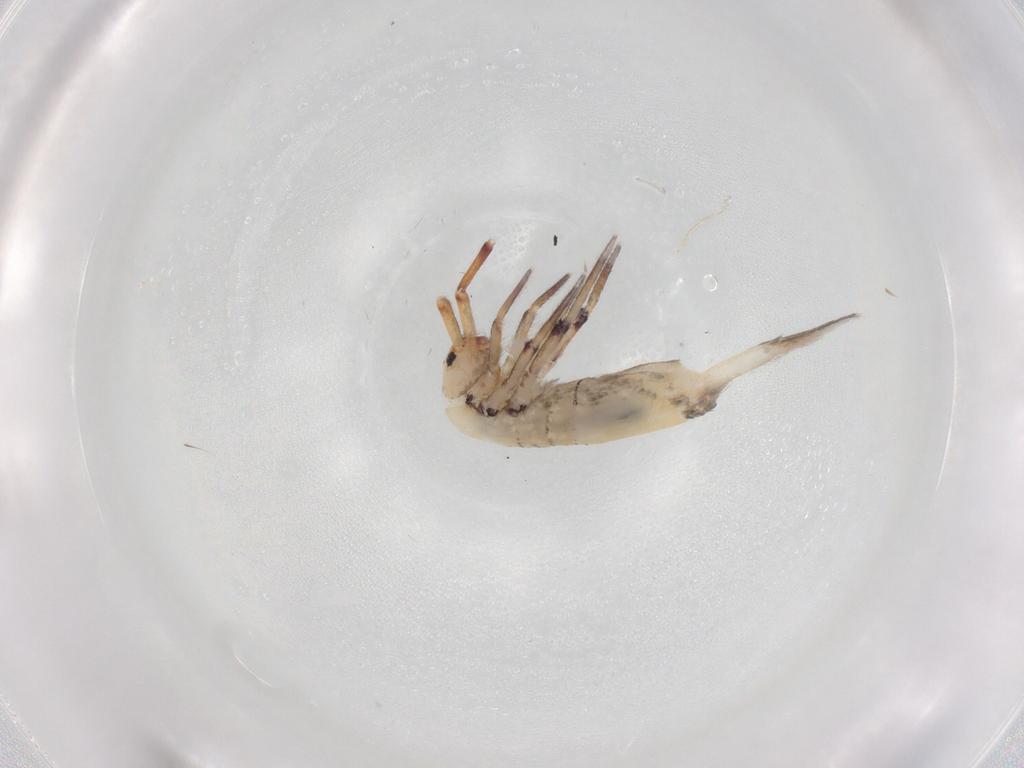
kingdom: Animalia
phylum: Arthropoda
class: Collembola
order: Entomobryomorpha
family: Entomobryidae
